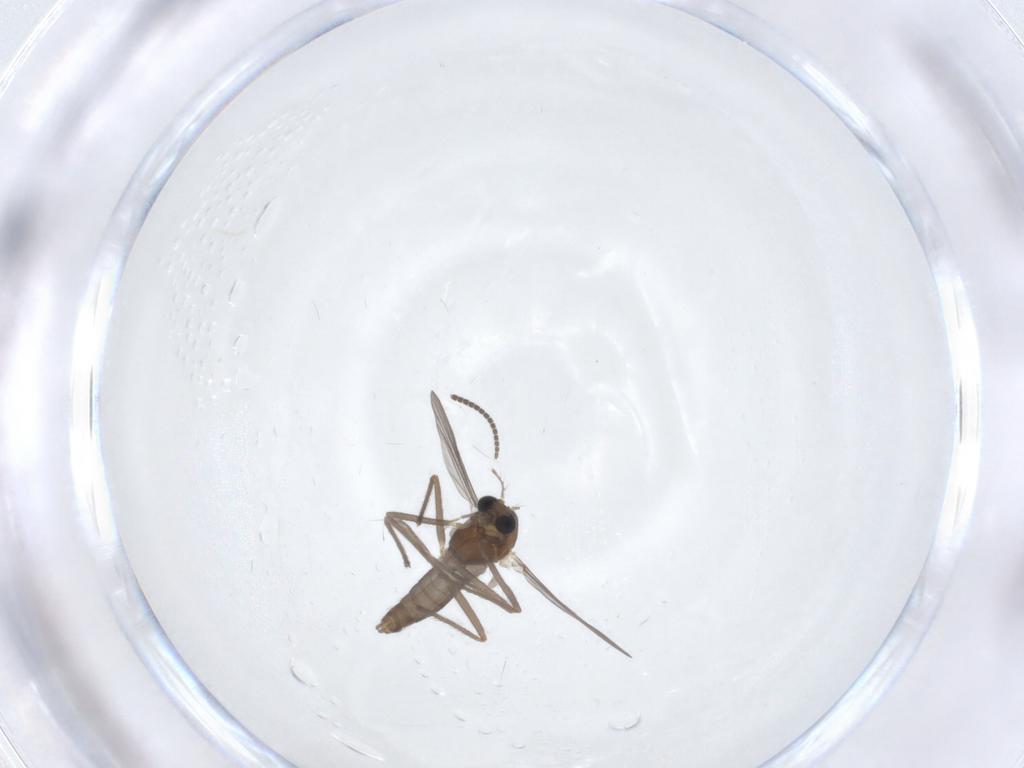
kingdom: Animalia
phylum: Arthropoda
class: Insecta
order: Diptera
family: Chironomidae
